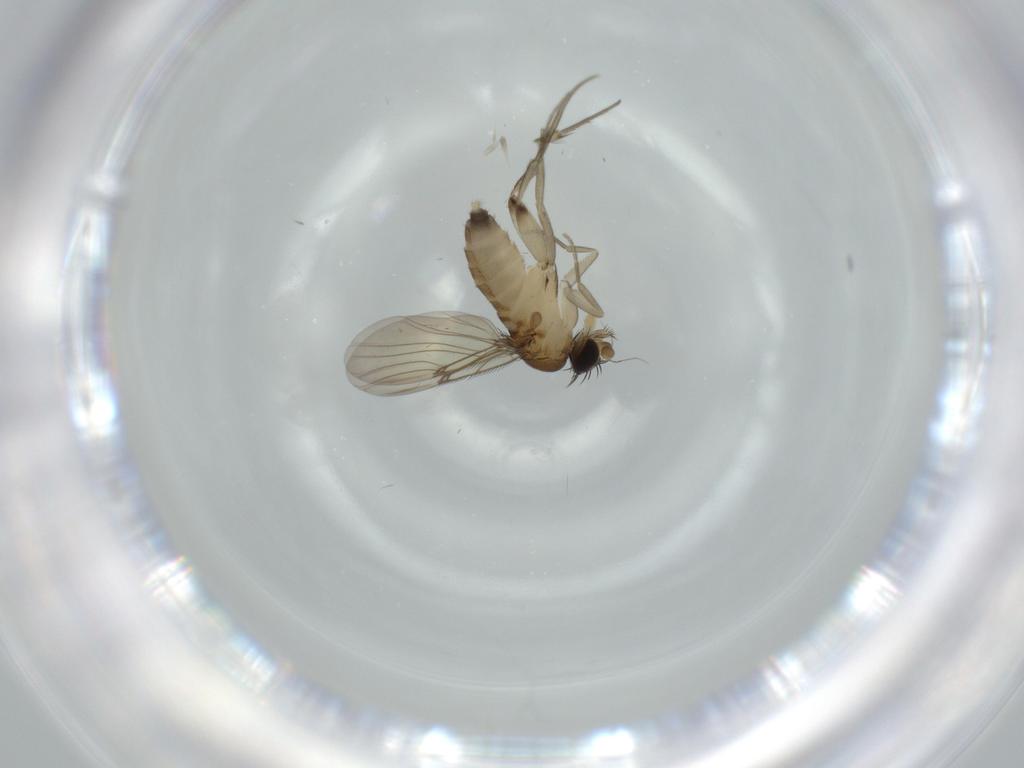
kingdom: Animalia
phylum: Arthropoda
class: Insecta
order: Diptera
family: Phoridae
